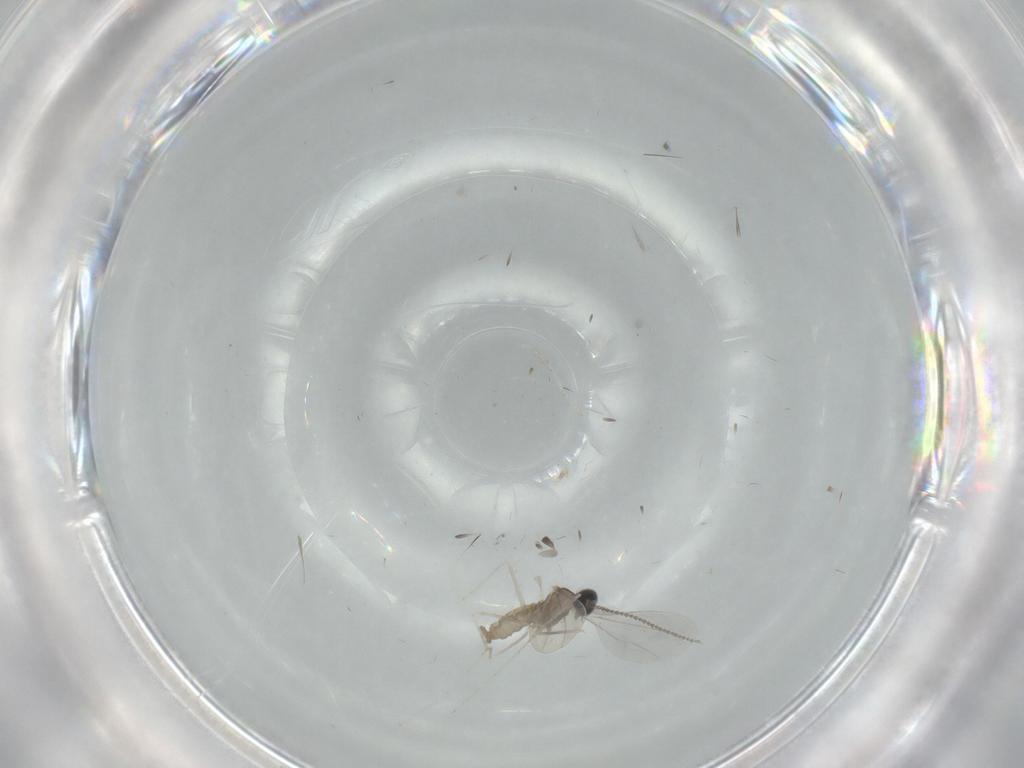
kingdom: Animalia
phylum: Arthropoda
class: Insecta
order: Diptera
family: Cecidomyiidae
